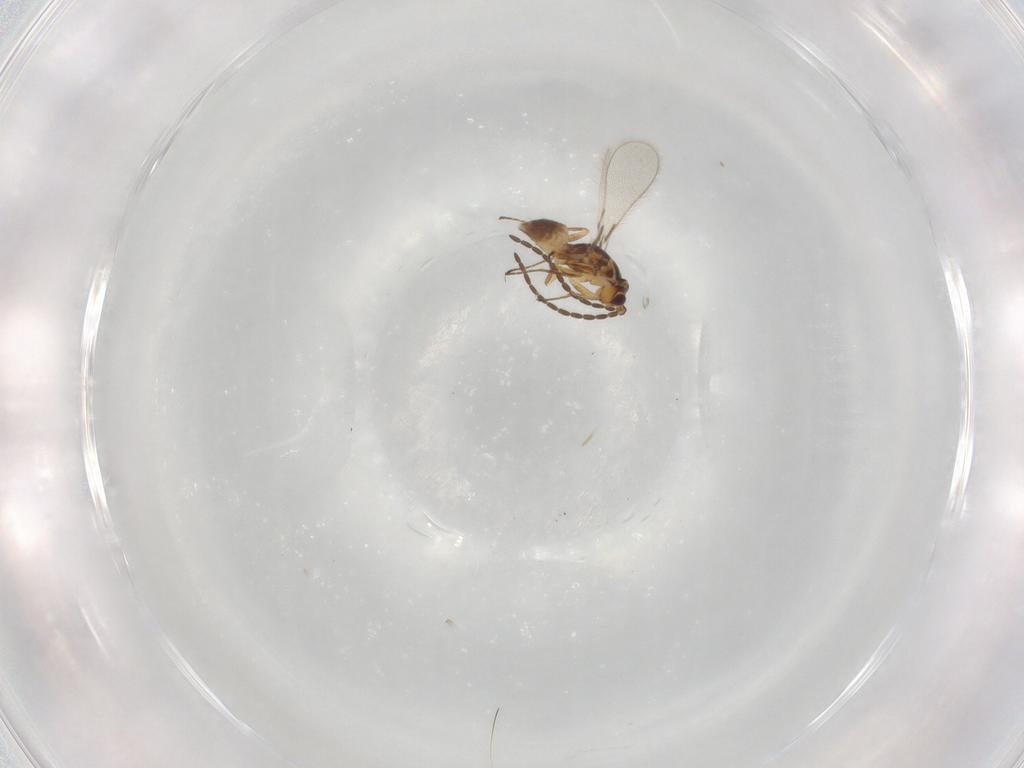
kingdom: Animalia
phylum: Arthropoda
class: Insecta
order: Hymenoptera
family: Mymaridae
